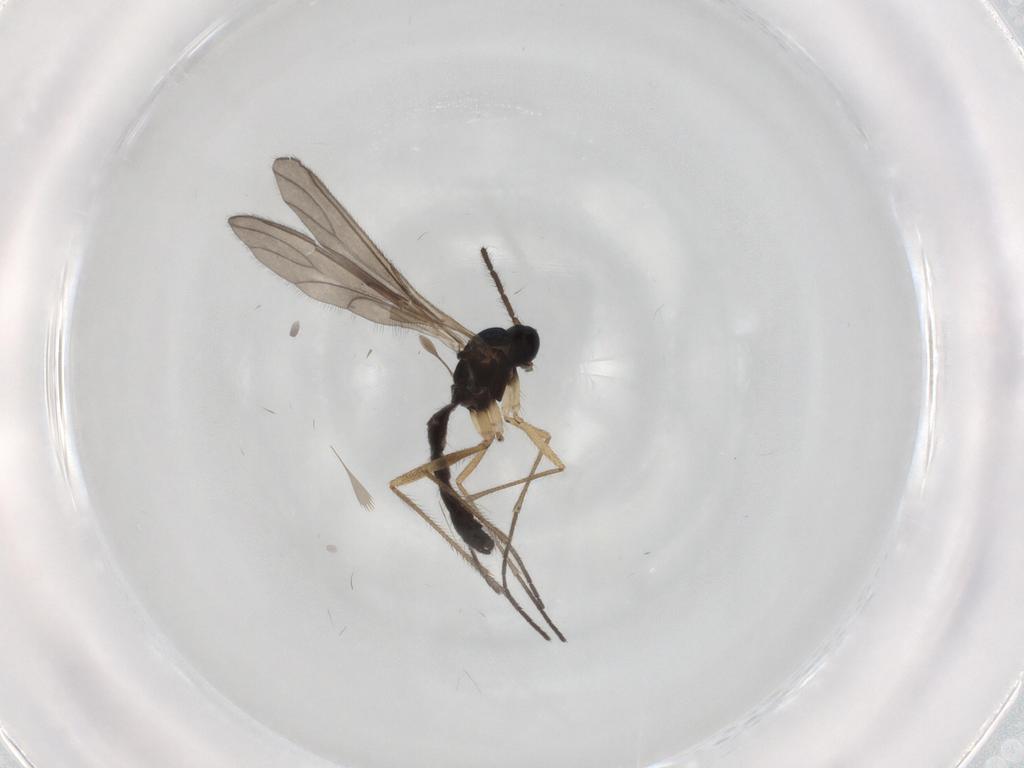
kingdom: Animalia
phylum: Arthropoda
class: Insecta
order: Diptera
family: Sciaridae
